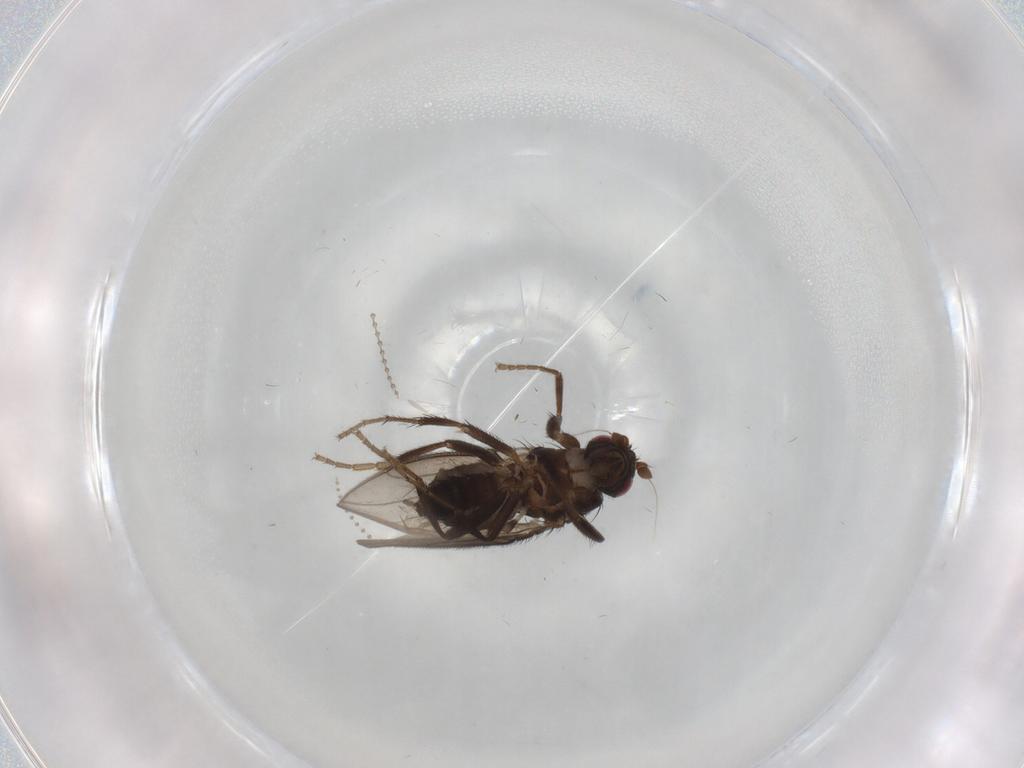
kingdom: Animalia
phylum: Arthropoda
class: Insecta
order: Diptera
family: Sphaeroceridae
